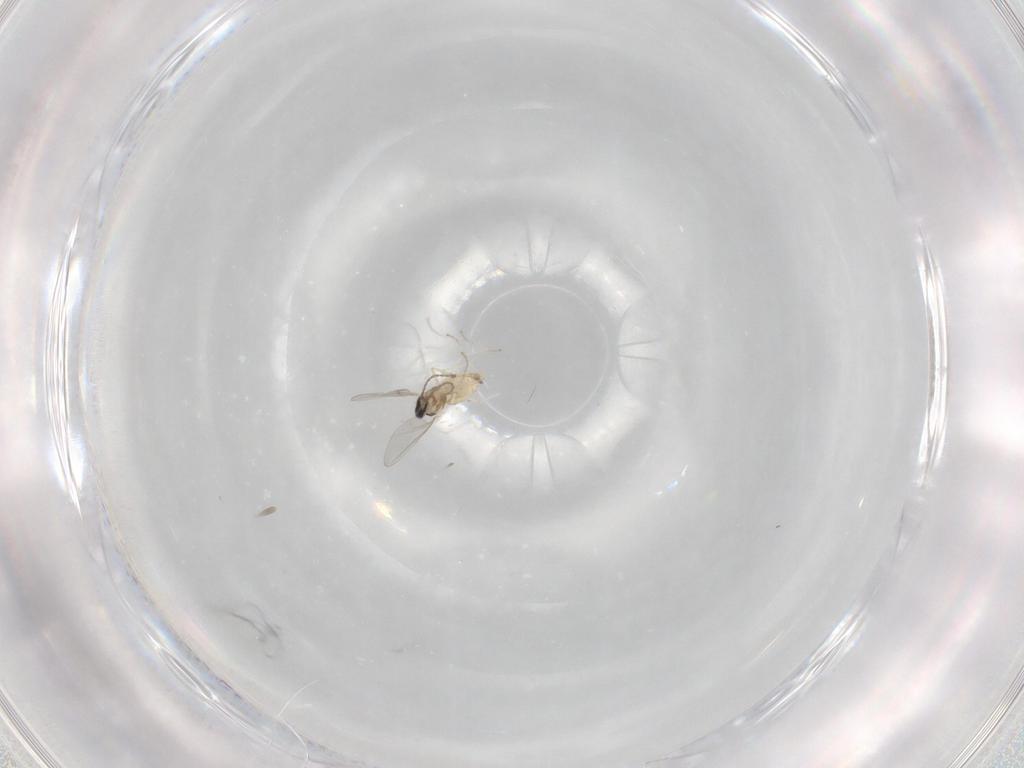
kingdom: Animalia
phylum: Arthropoda
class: Insecta
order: Diptera
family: Cecidomyiidae
